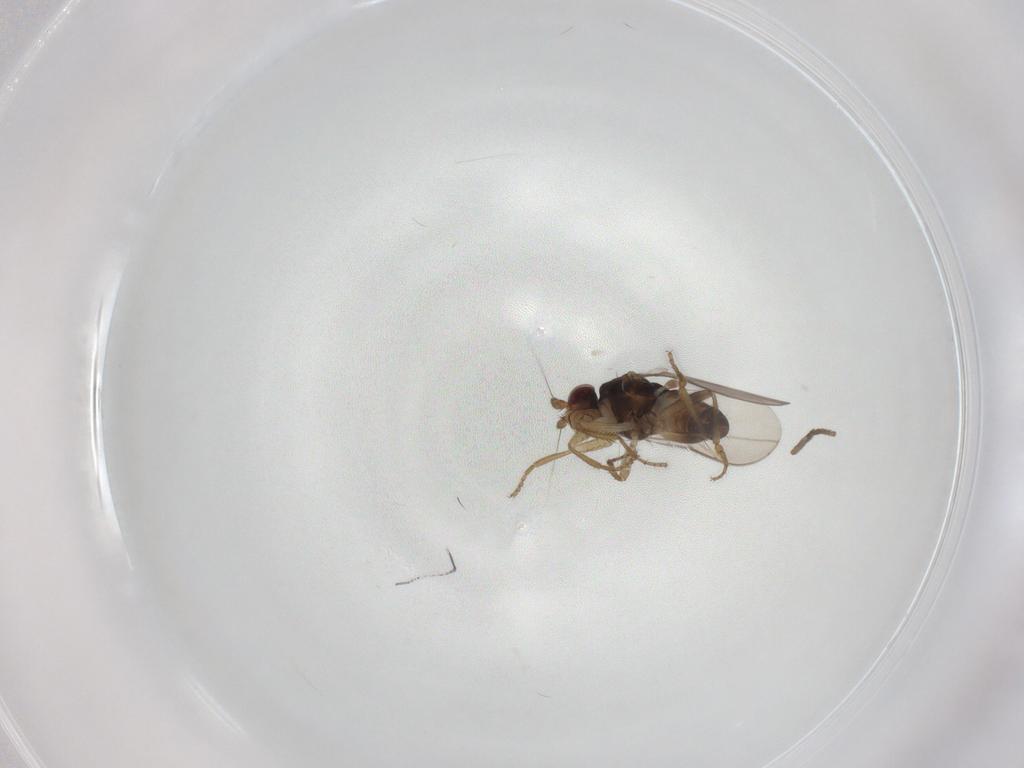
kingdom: Animalia
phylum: Arthropoda
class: Insecta
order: Diptera
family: Sphaeroceridae
